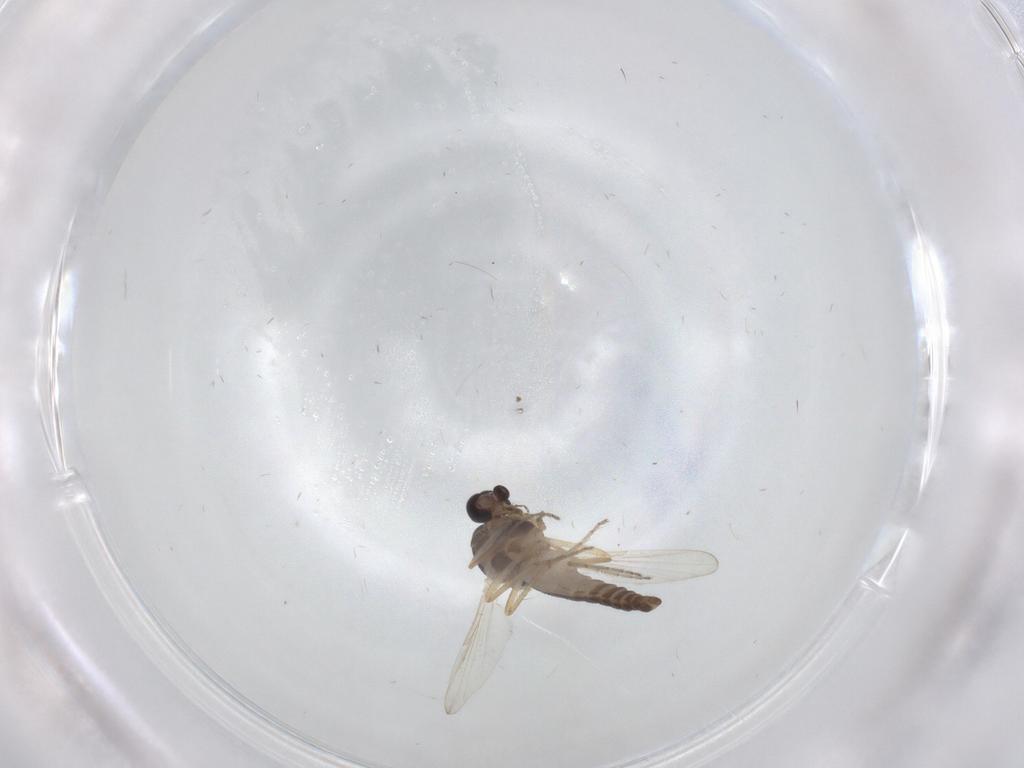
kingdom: Animalia
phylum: Arthropoda
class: Insecta
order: Diptera
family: Ceratopogonidae
